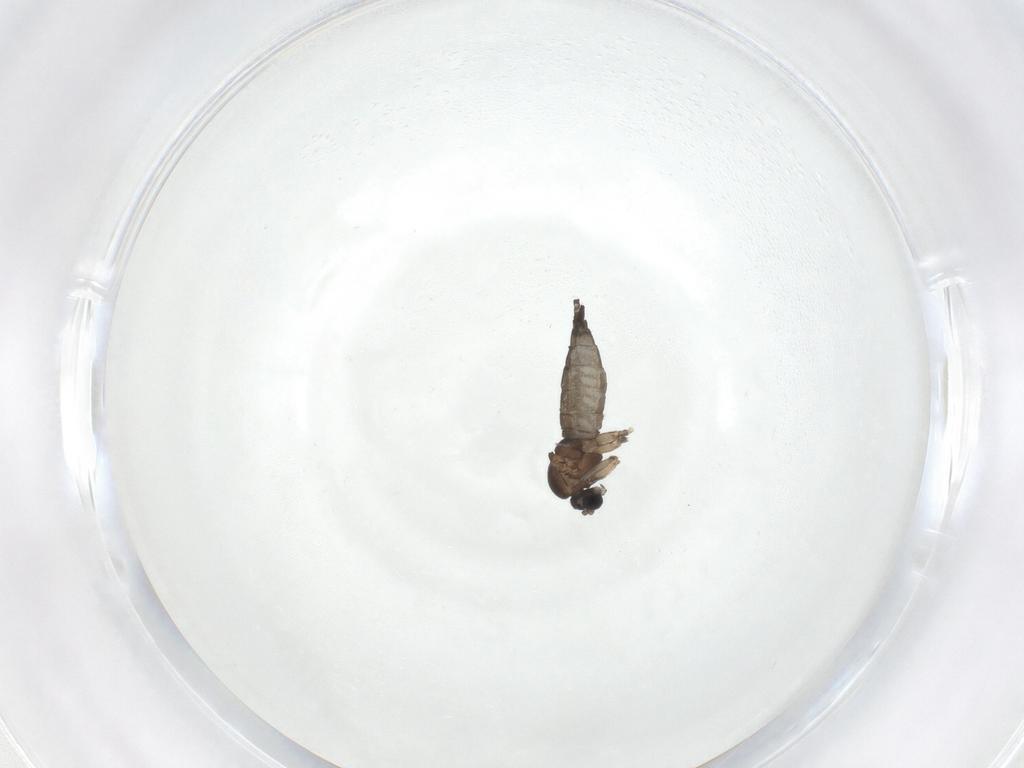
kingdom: Animalia
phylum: Arthropoda
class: Insecta
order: Diptera
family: Sciaridae
